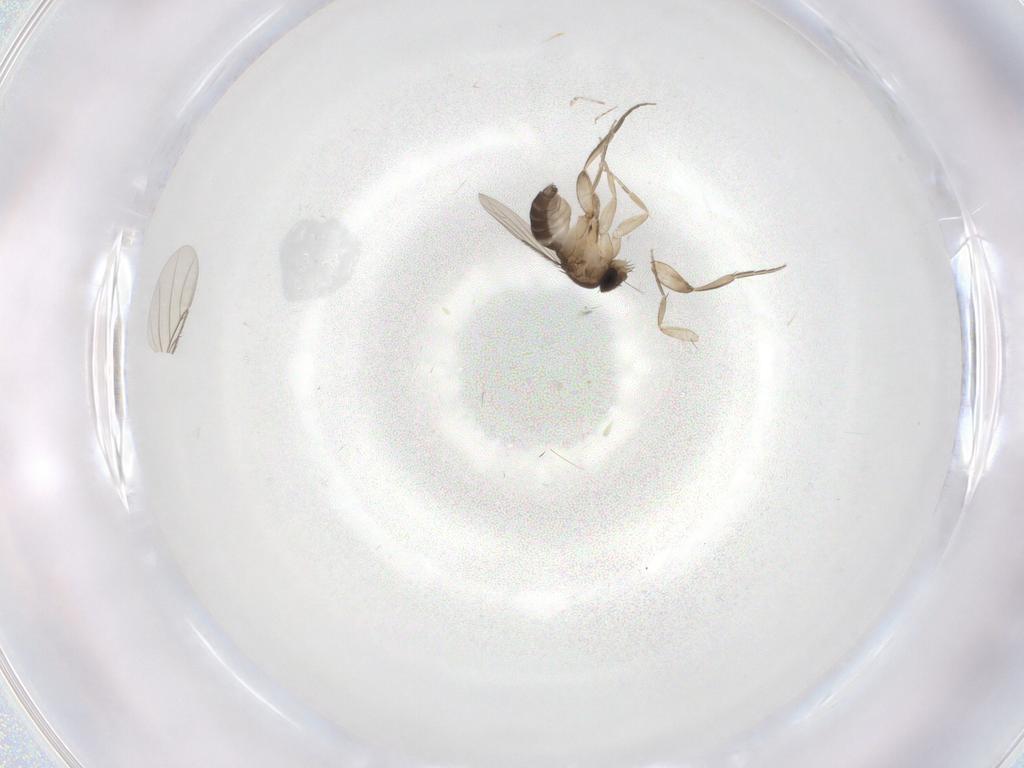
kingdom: Animalia
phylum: Arthropoda
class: Insecta
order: Diptera
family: Phoridae
